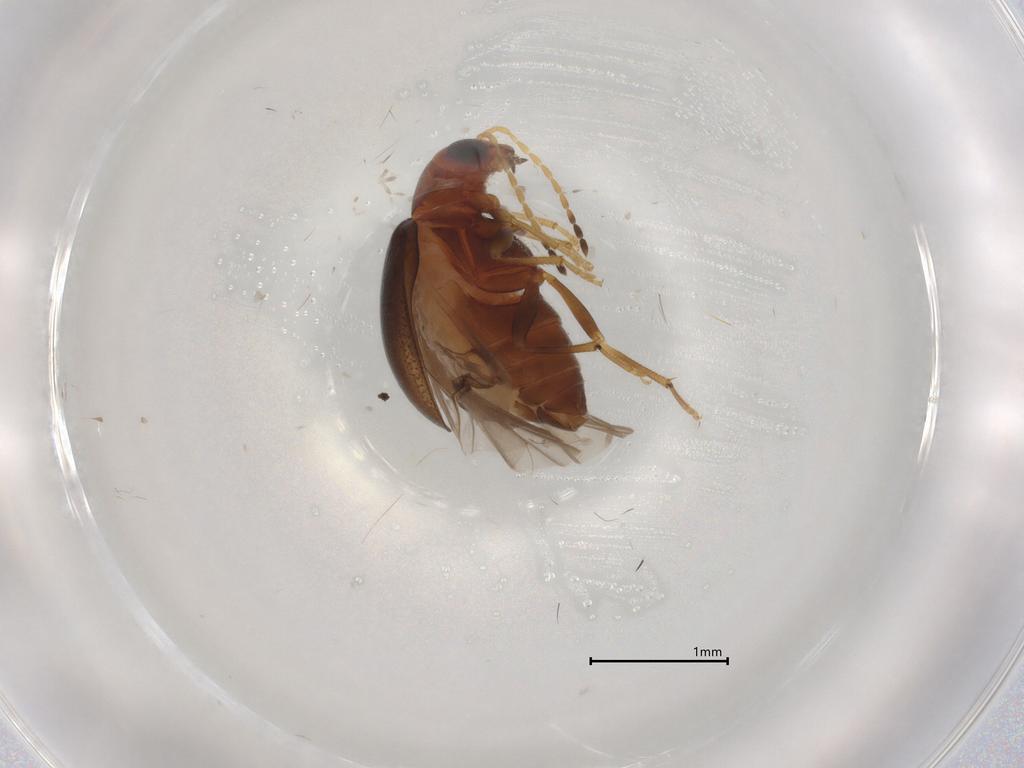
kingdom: Animalia
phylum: Arthropoda
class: Insecta
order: Coleoptera
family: Chrysomelidae
